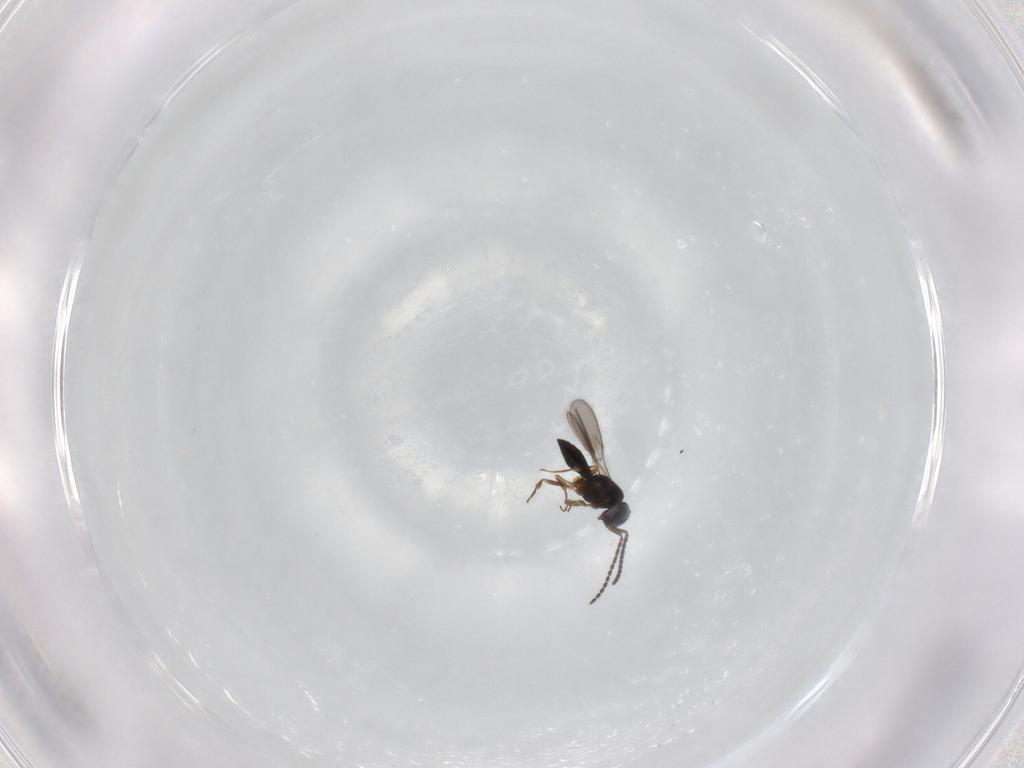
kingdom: Animalia
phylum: Arthropoda
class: Insecta
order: Hymenoptera
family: Scelionidae
